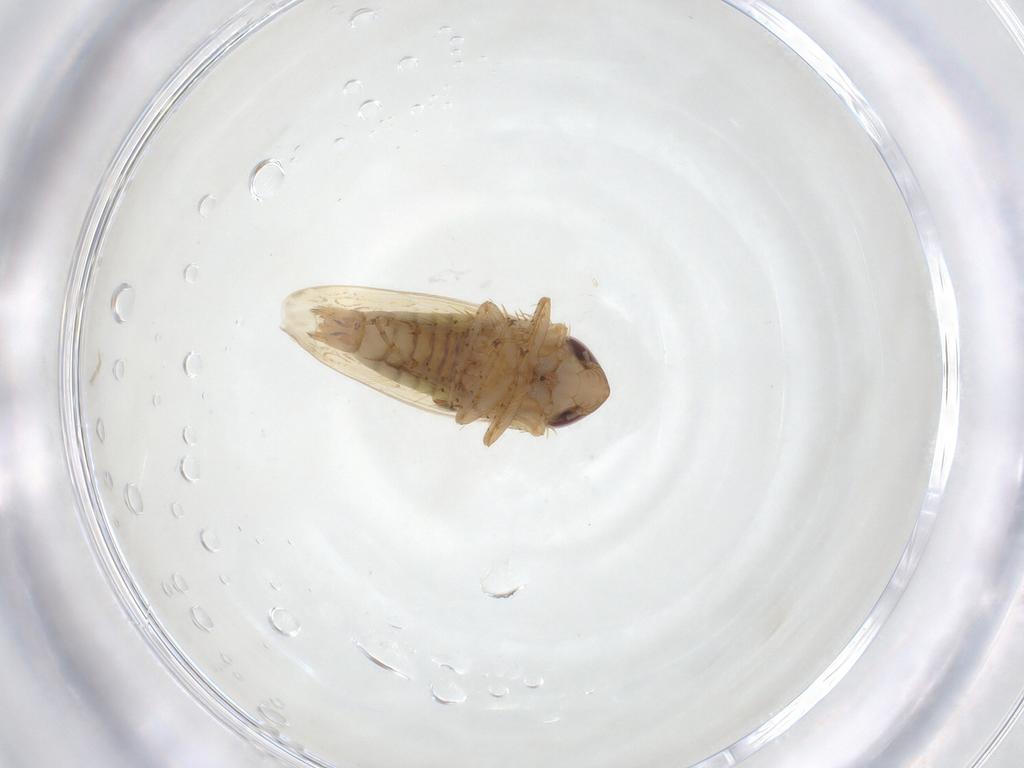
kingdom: Animalia
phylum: Arthropoda
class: Insecta
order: Hemiptera
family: Cicadellidae
